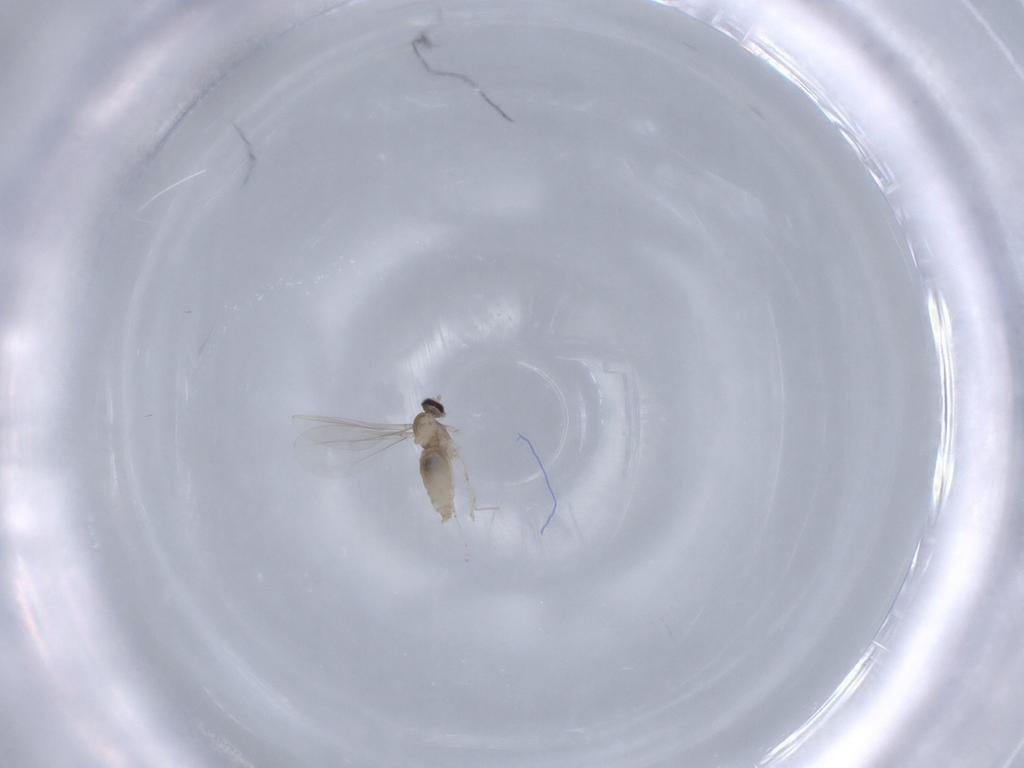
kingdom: Animalia
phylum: Arthropoda
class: Insecta
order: Diptera
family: Cecidomyiidae
